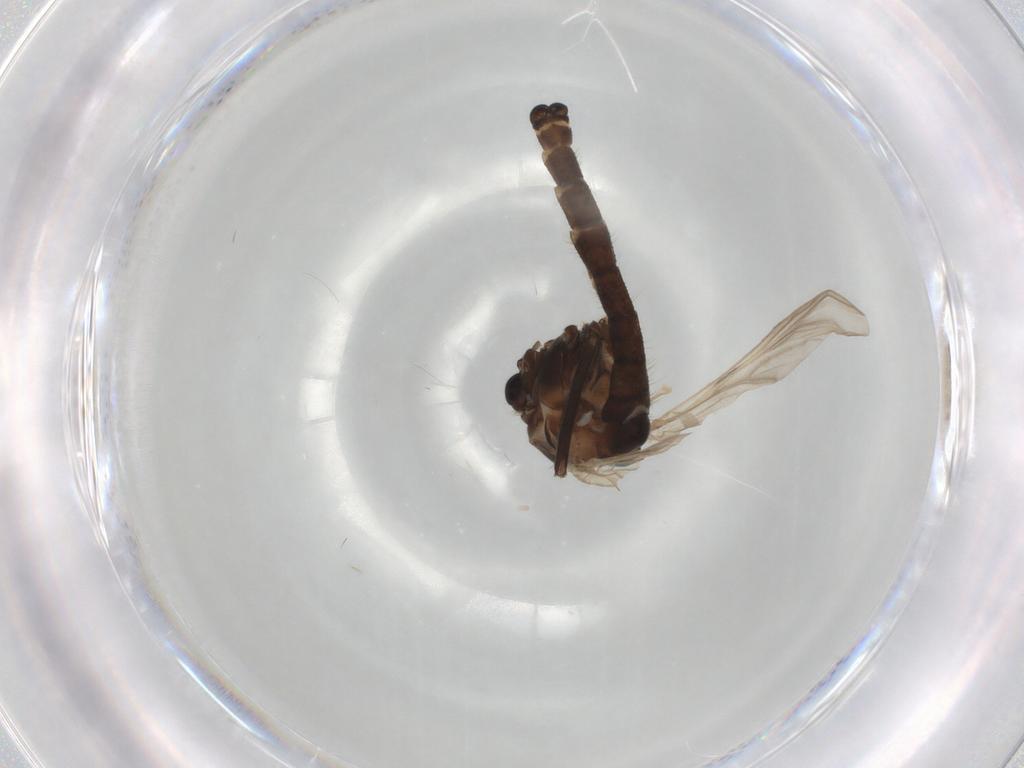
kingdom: Animalia
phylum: Arthropoda
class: Insecta
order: Diptera
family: Chironomidae
